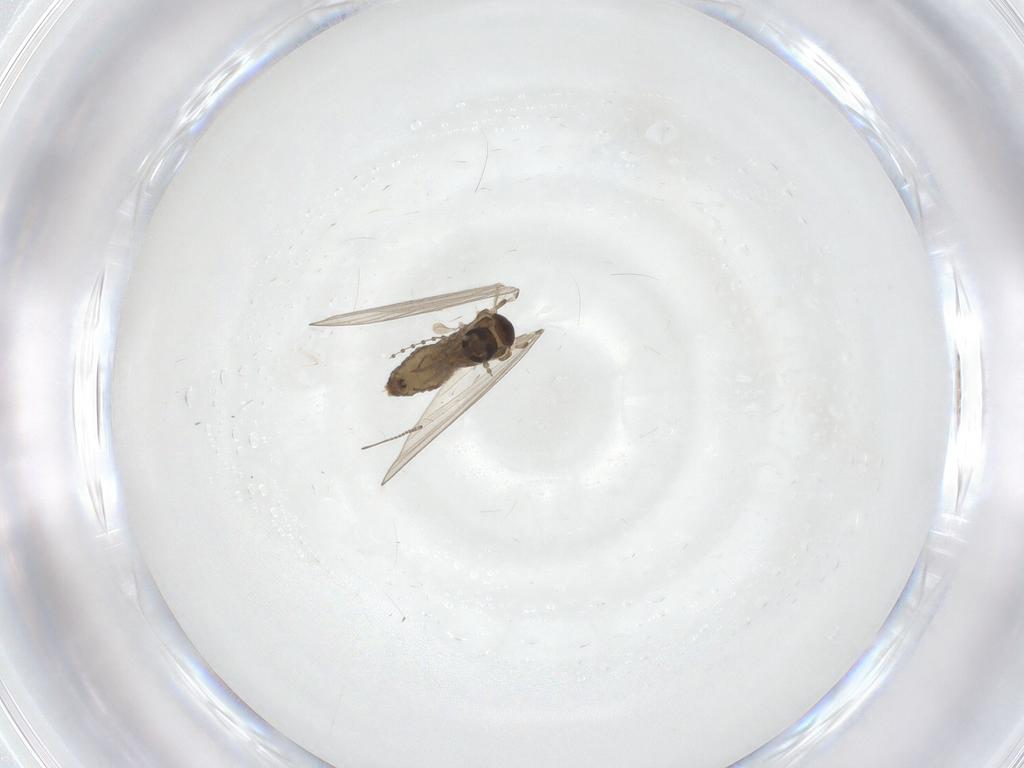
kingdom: Animalia
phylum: Arthropoda
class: Insecta
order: Diptera
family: Psychodidae
